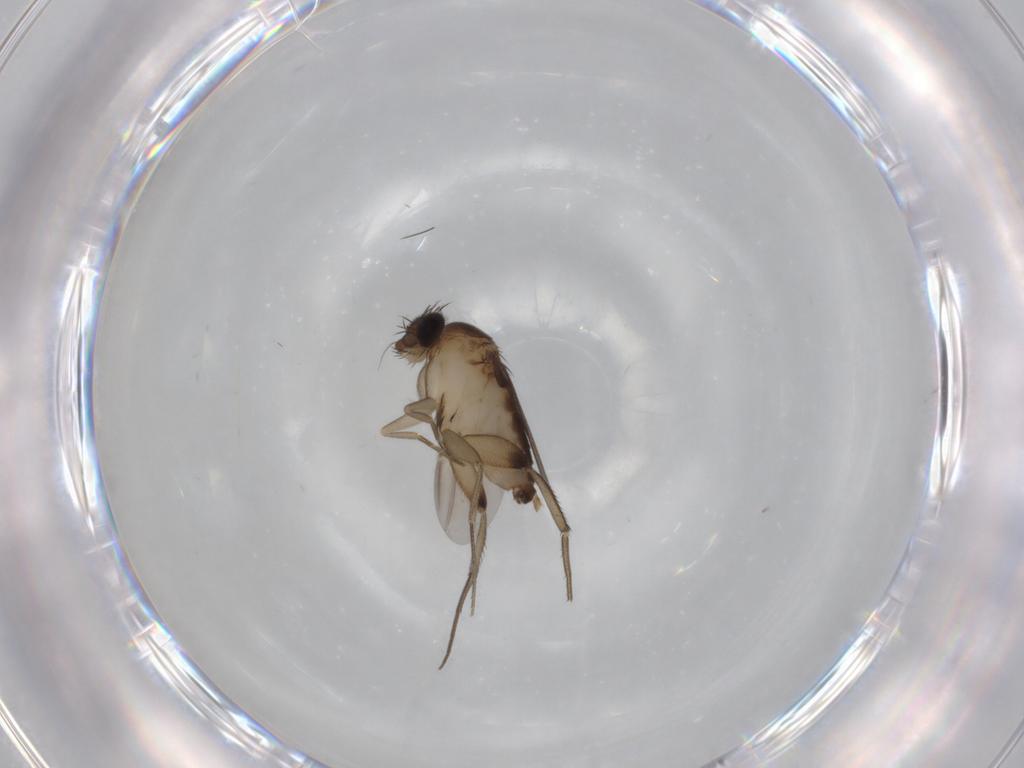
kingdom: Animalia
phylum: Arthropoda
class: Insecta
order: Diptera
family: Phoridae
